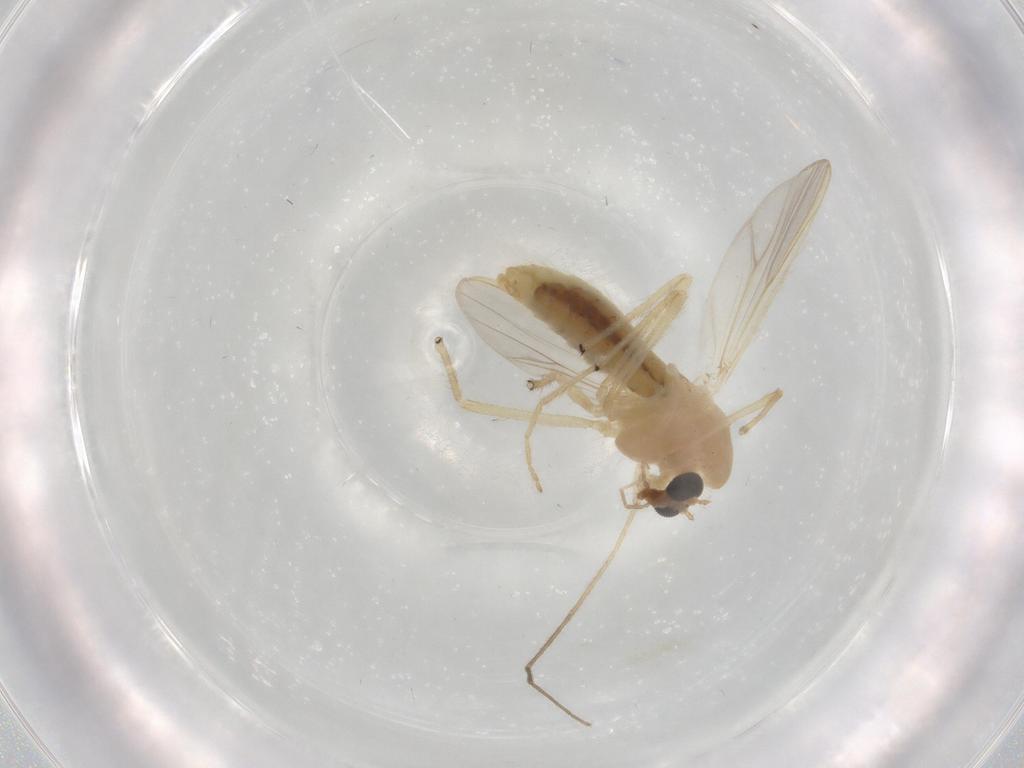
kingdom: Animalia
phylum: Arthropoda
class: Insecta
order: Diptera
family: Chironomidae
